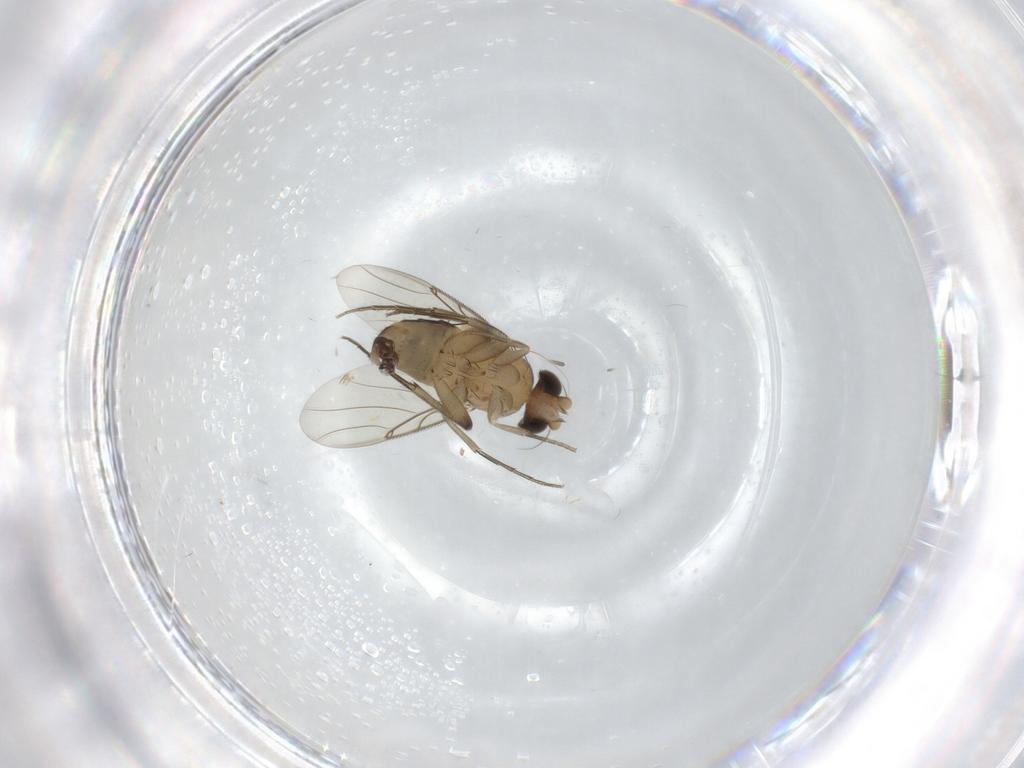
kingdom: Animalia
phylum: Arthropoda
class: Insecta
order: Diptera
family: Phoridae
